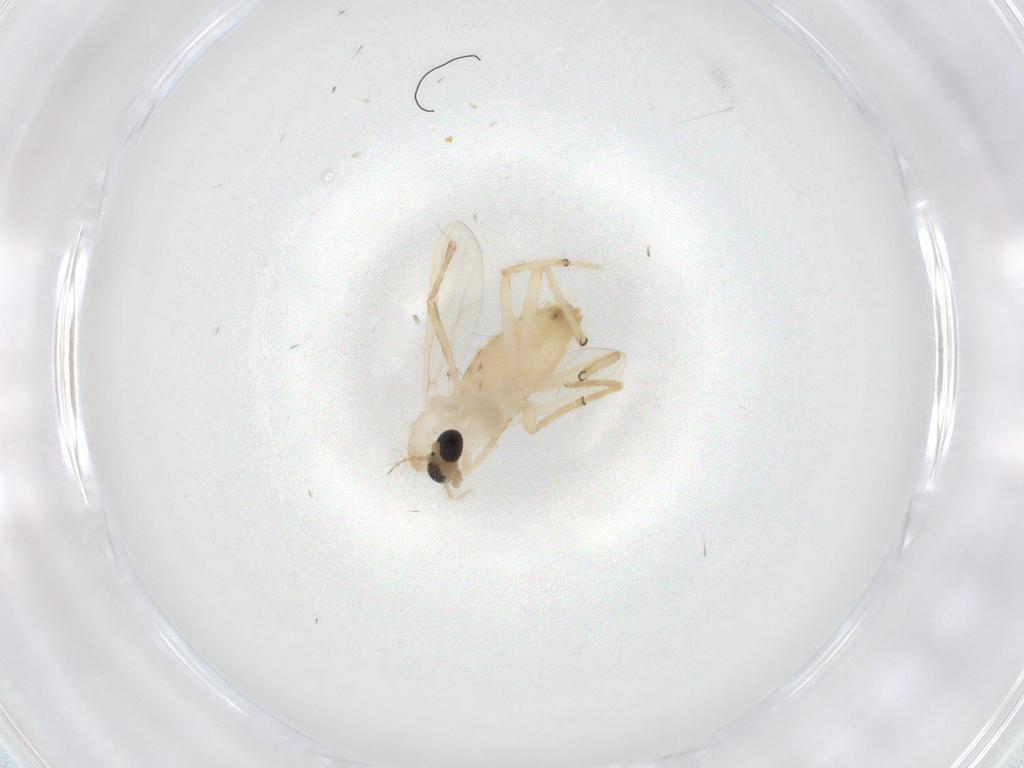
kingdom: Animalia
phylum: Arthropoda
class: Insecta
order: Diptera
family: Chironomidae
